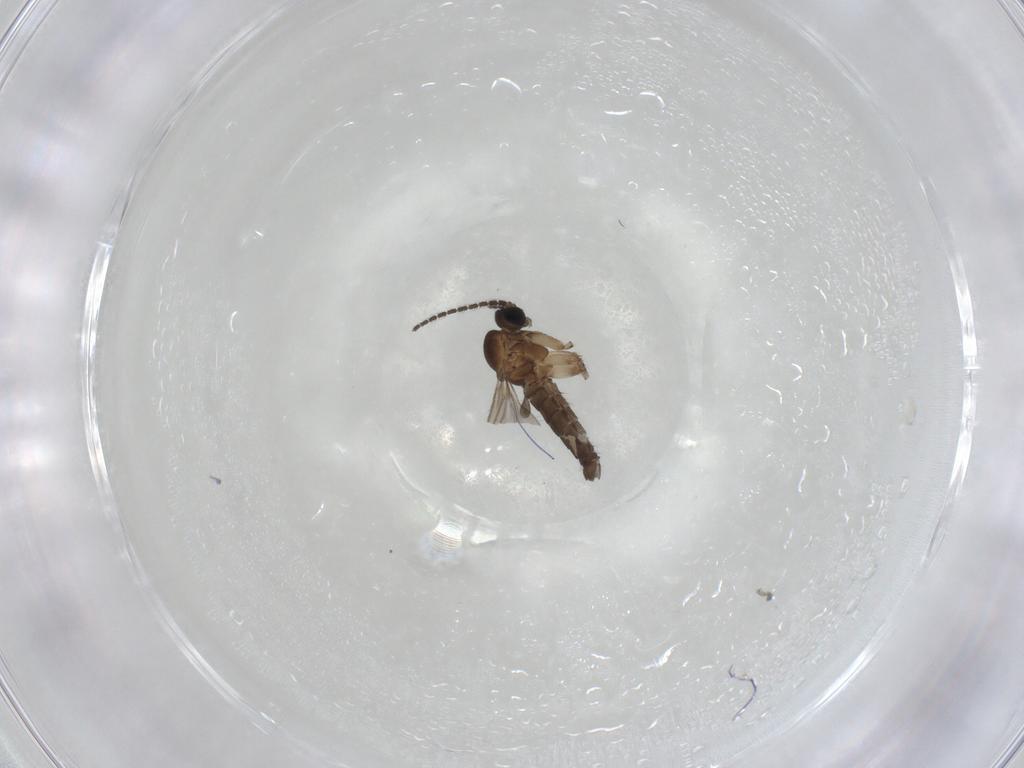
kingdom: Animalia
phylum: Arthropoda
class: Insecta
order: Diptera
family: Sciaridae
